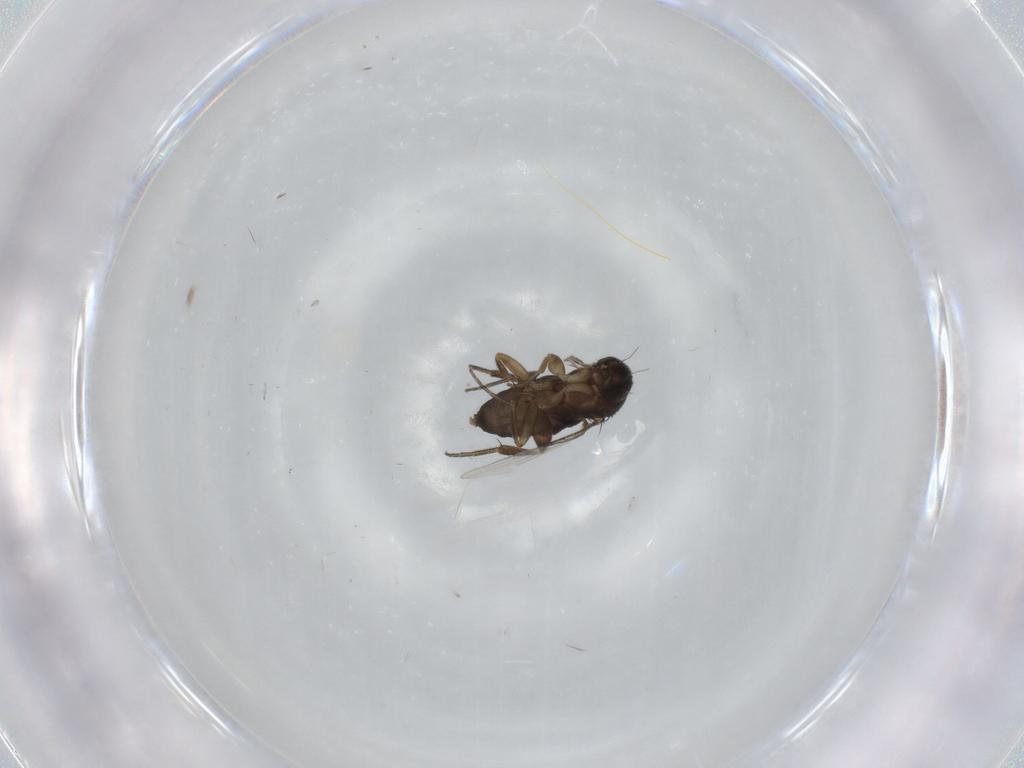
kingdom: Animalia
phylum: Arthropoda
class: Insecta
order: Diptera
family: Phoridae
